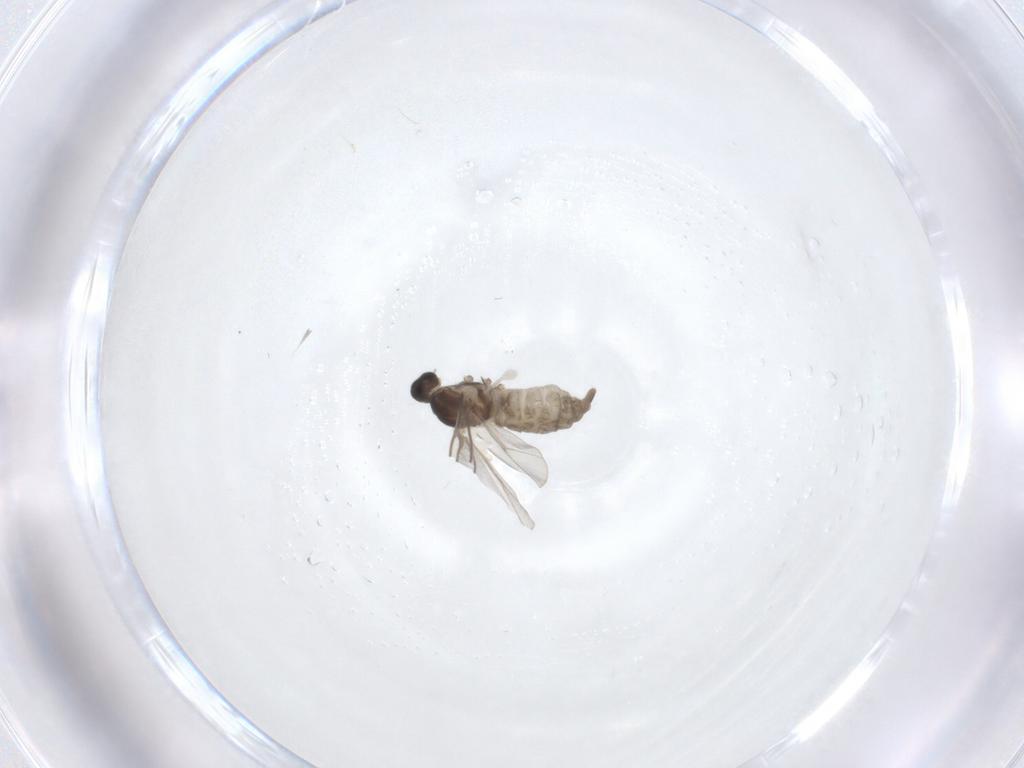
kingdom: Animalia
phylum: Arthropoda
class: Insecta
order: Diptera
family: Cecidomyiidae
